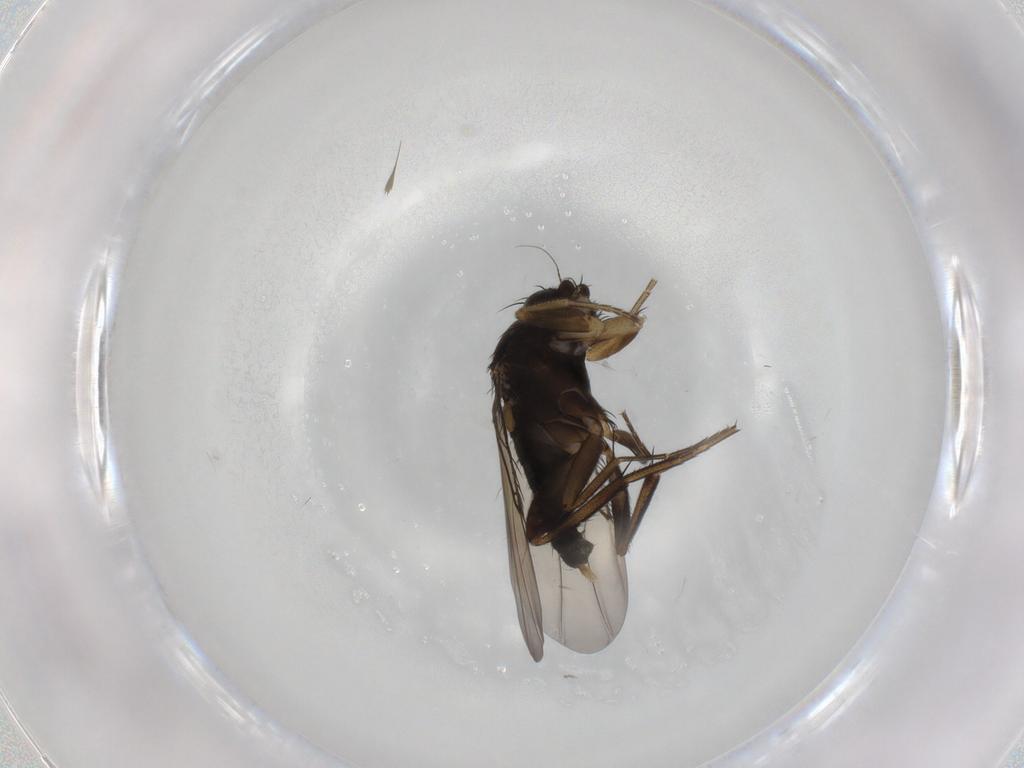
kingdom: Animalia
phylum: Arthropoda
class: Insecta
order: Diptera
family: Phoridae
